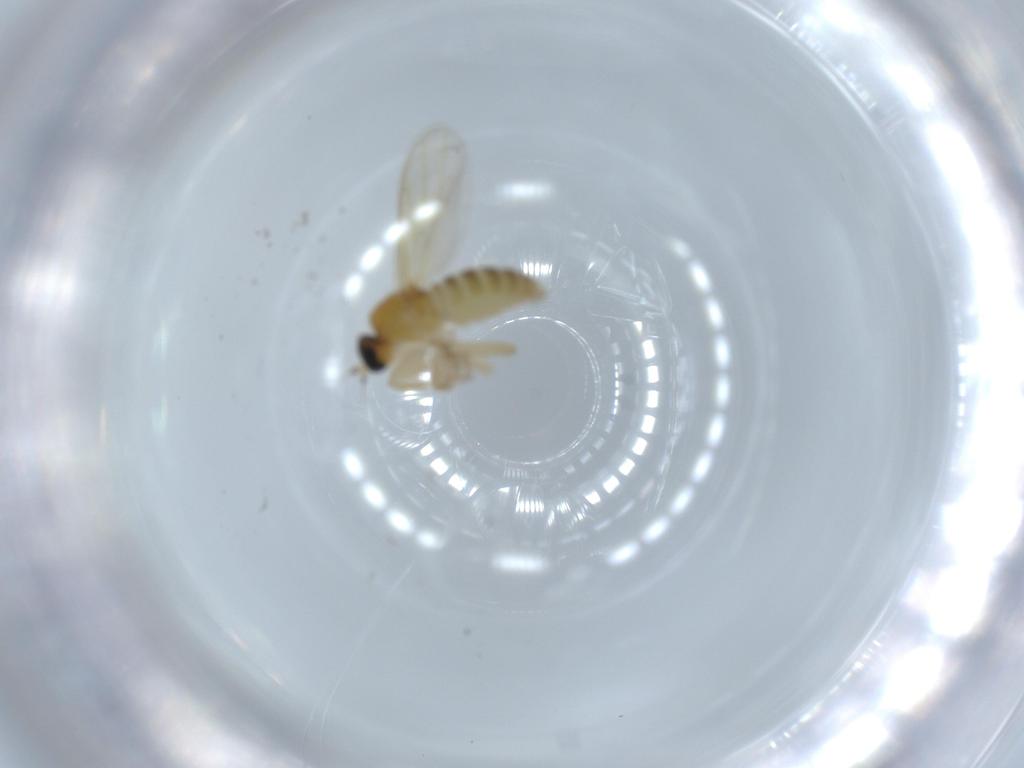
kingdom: Animalia
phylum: Arthropoda
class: Insecta
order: Diptera
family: Hybotidae
